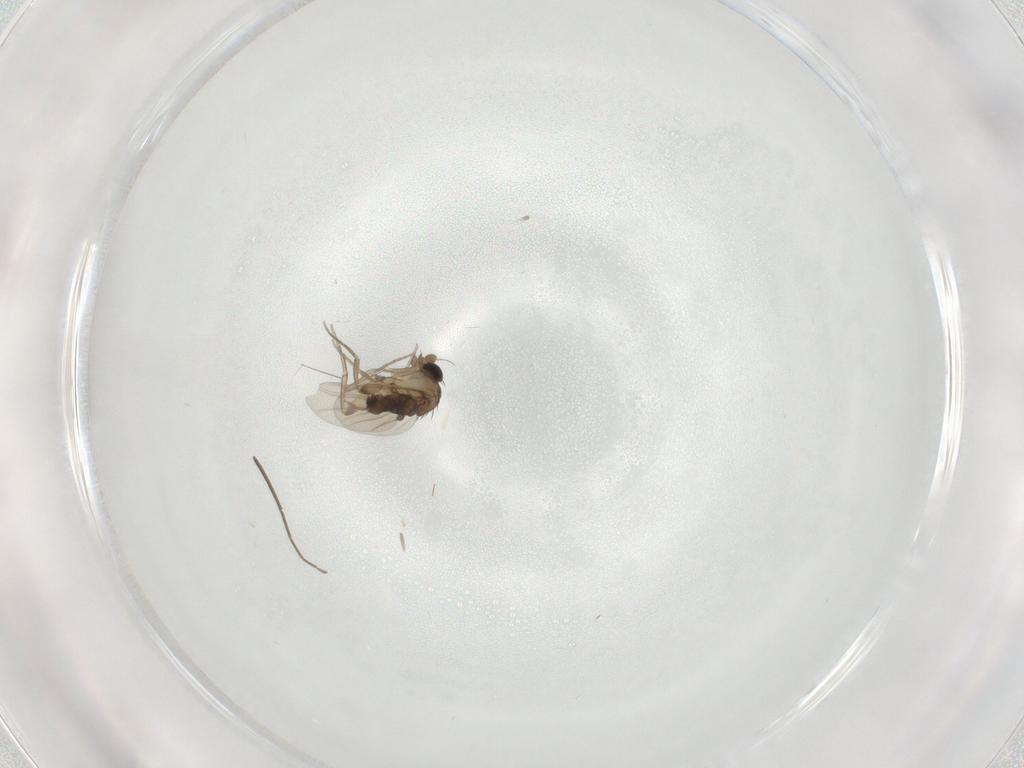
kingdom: Animalia
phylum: Arthropoda
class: Insecta
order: Diptera
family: Phoridae
